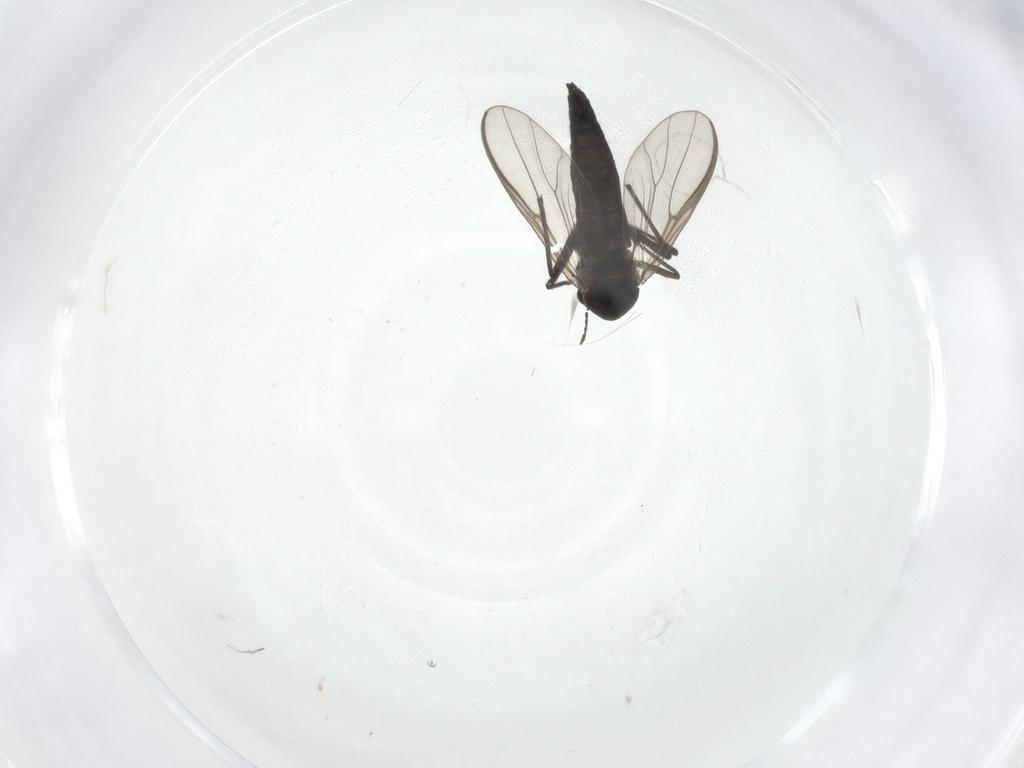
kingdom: Animalia
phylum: Arthropoda
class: Insecta
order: Diptera
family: Chironomidae
